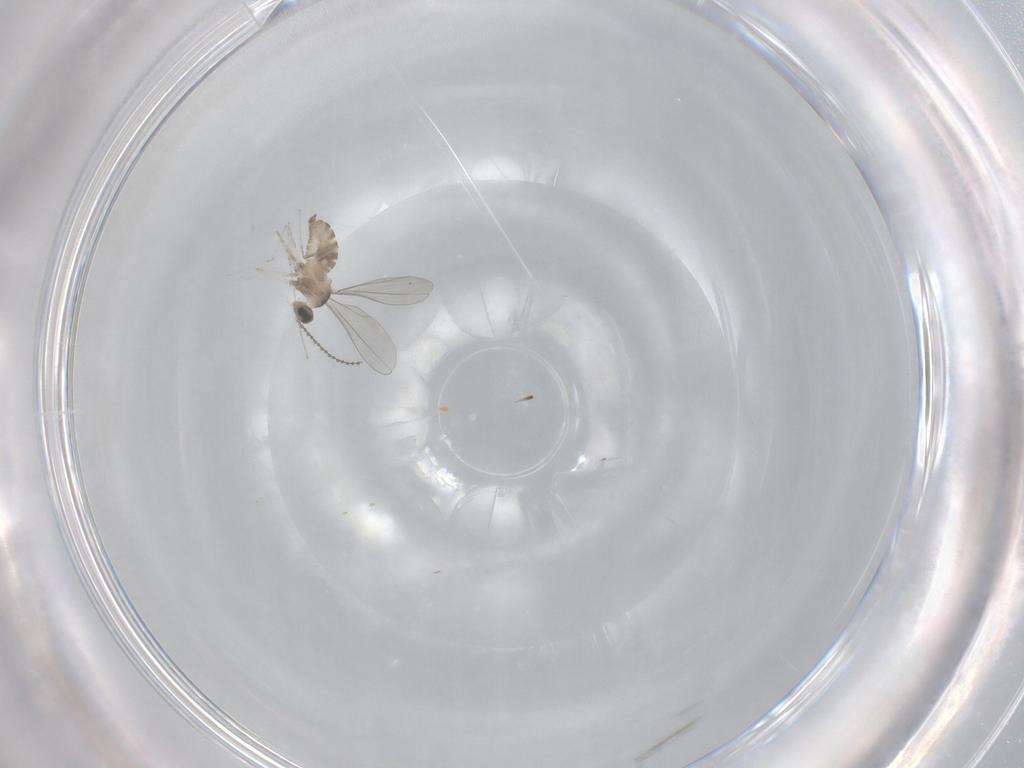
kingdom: Animalia
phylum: Arthropoda
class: Insecta
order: Diptera
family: Cecidomyiidae
